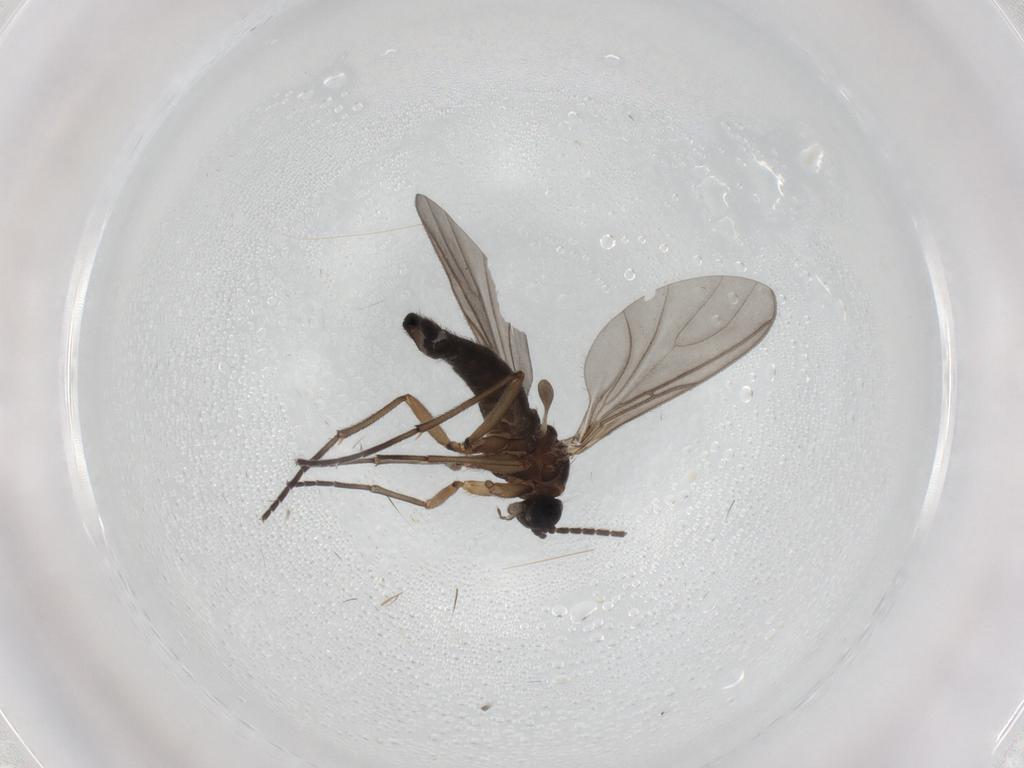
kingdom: Animalia
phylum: Arthropoda
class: Insecta
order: Diptera
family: Sciaridae
